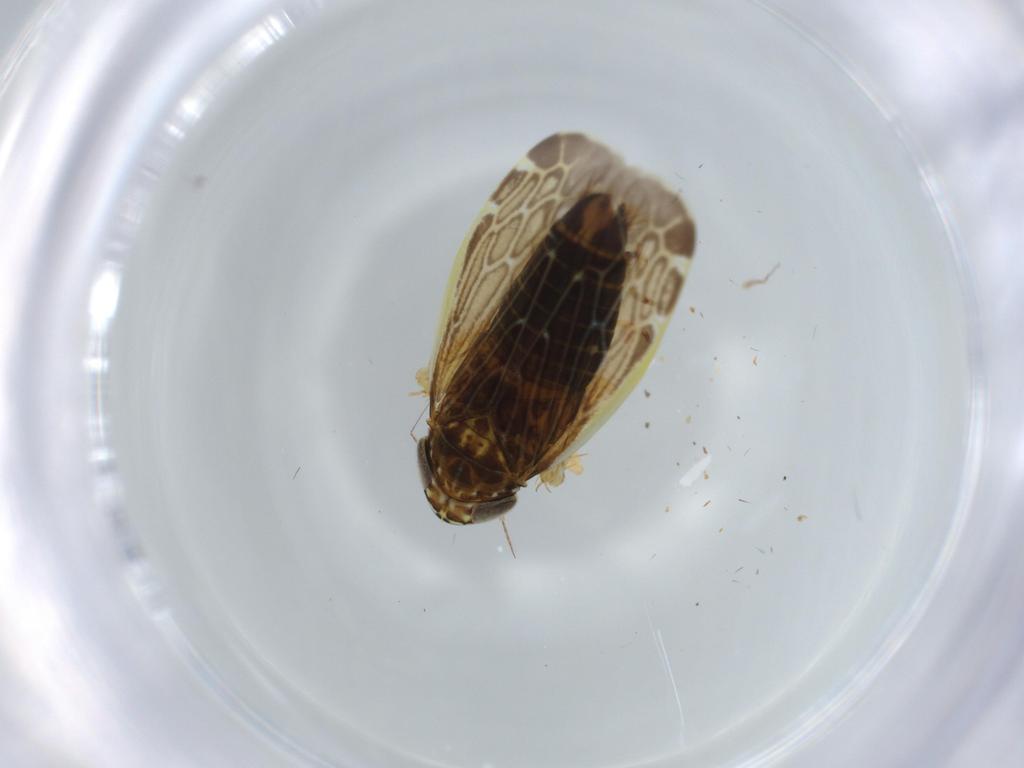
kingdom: Animalia
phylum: Arthropoda
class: Insecta
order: Hemiptera
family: Cicadellidae
